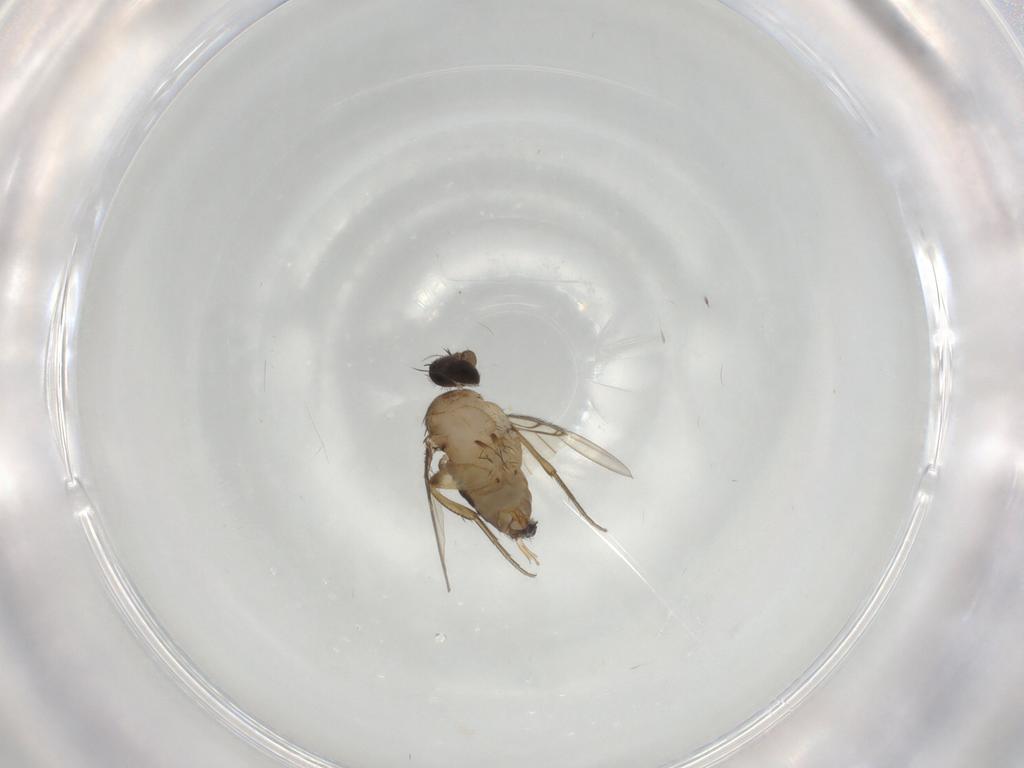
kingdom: Animalia
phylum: Arthropoda
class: Insecta
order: Diptera
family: Phoridae
